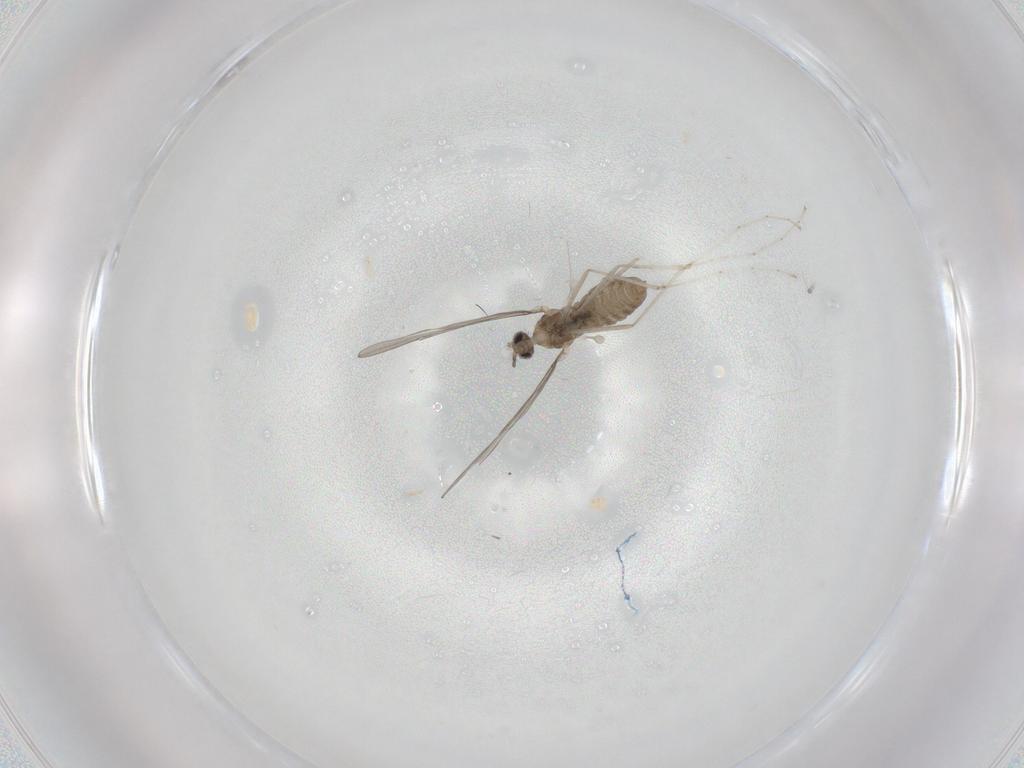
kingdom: Animalia
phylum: Arthropoda
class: Insecta
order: Diptera
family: Cecidomyiidae
